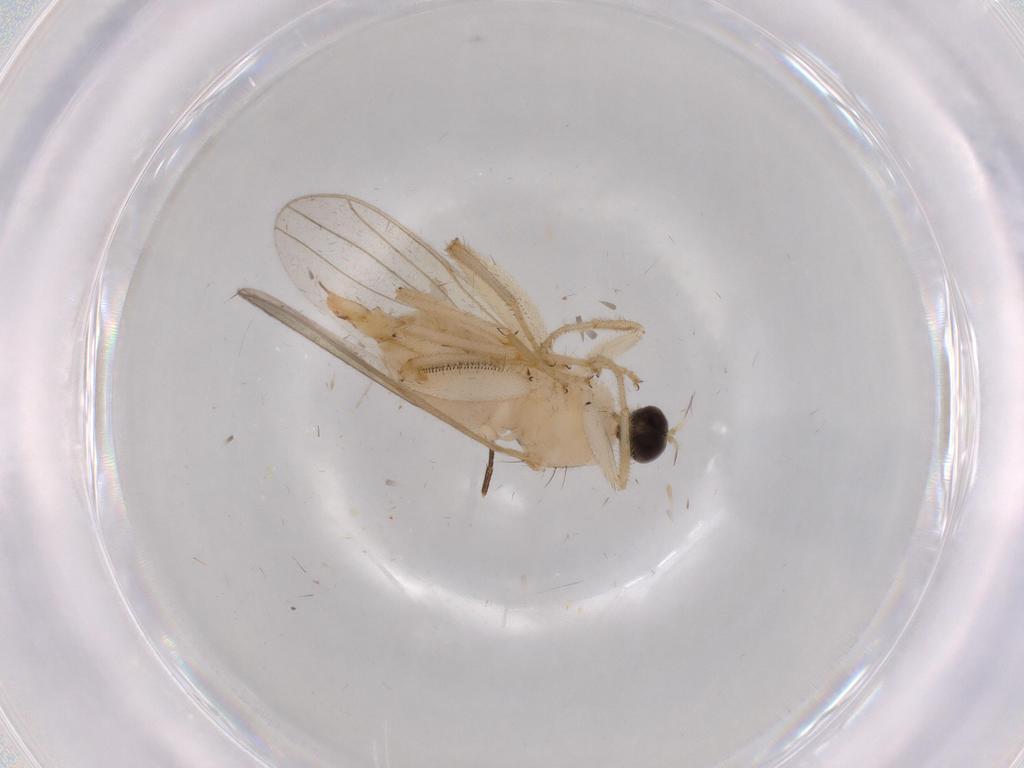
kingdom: Animalia
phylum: Arthropoda
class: Insecta
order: Diptera
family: Hybotidae
